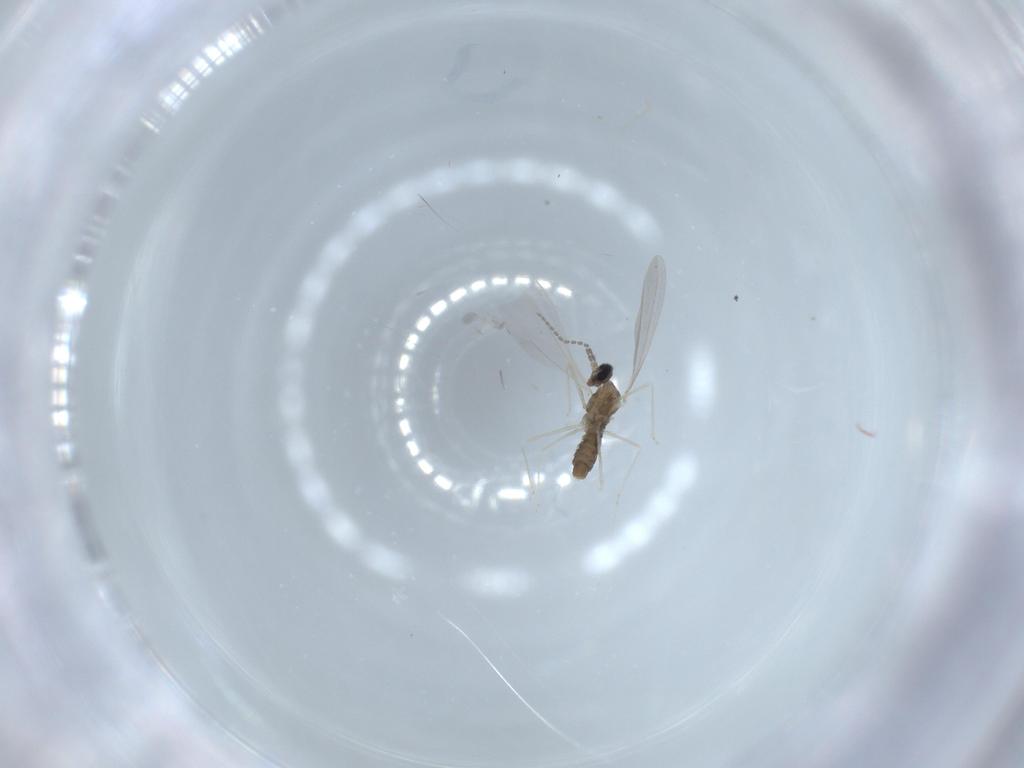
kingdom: Animalia
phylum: Arthropoda
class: Insecta
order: Diptera
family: Cecidomyiidae
